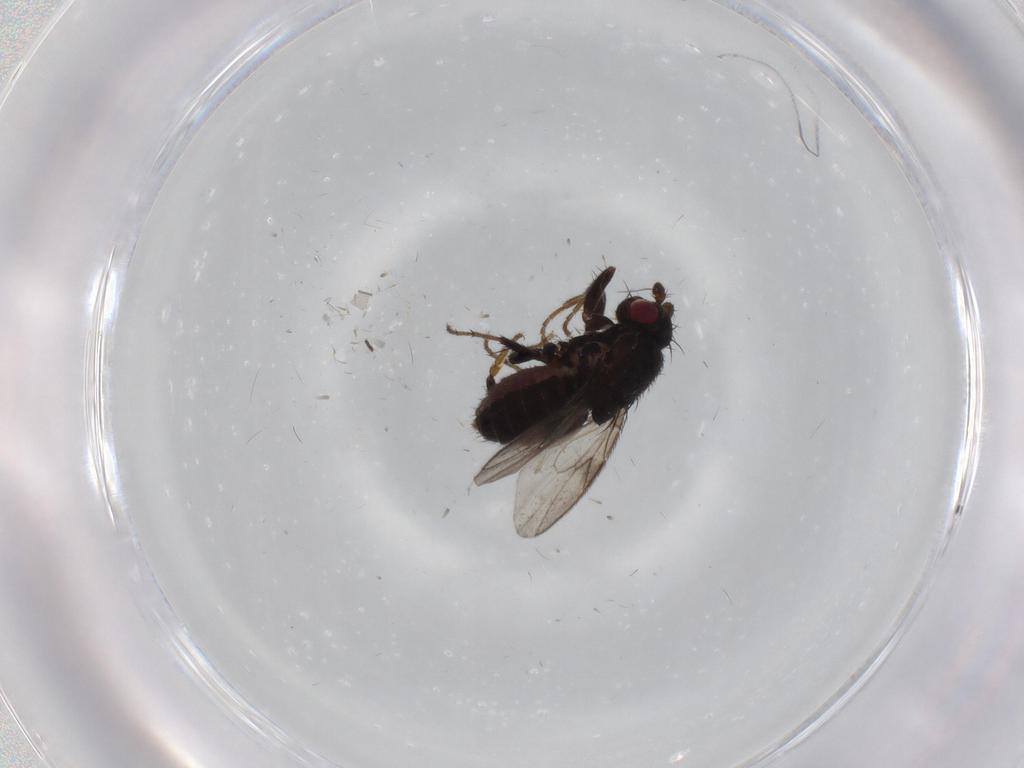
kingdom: Animalia
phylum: Arthropoda
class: Insecta
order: Diptera
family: Sphaeroceridae
